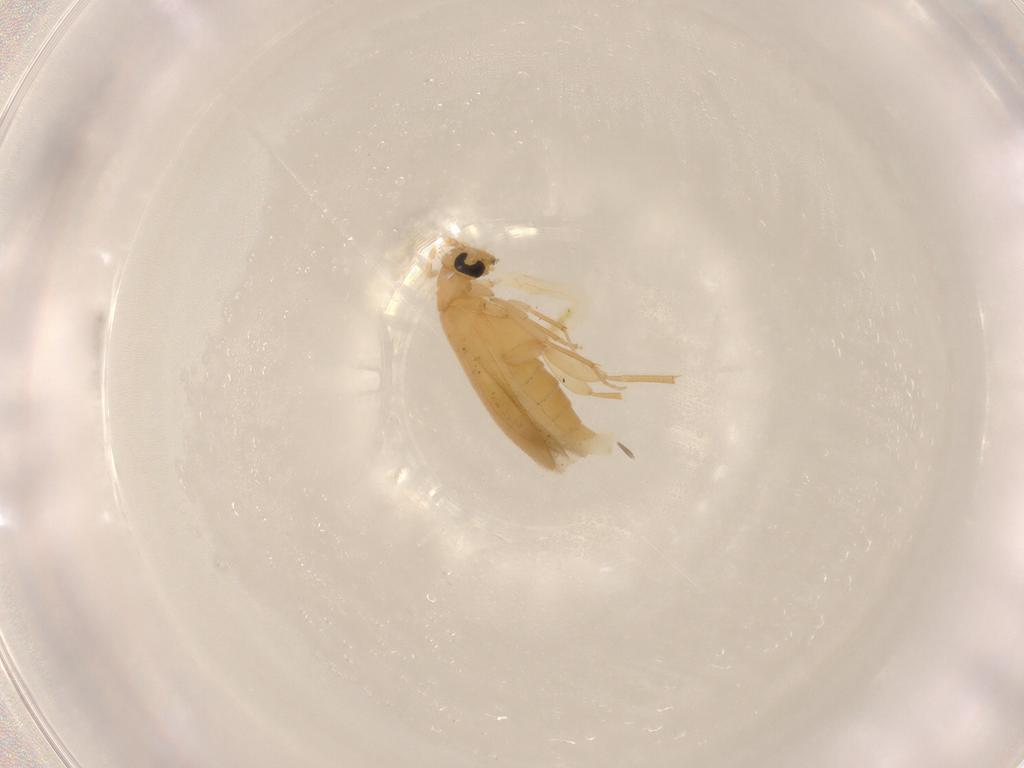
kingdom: Animalia
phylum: Arthropoda
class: Insecta
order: Coleoptera
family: Scraptiidae
